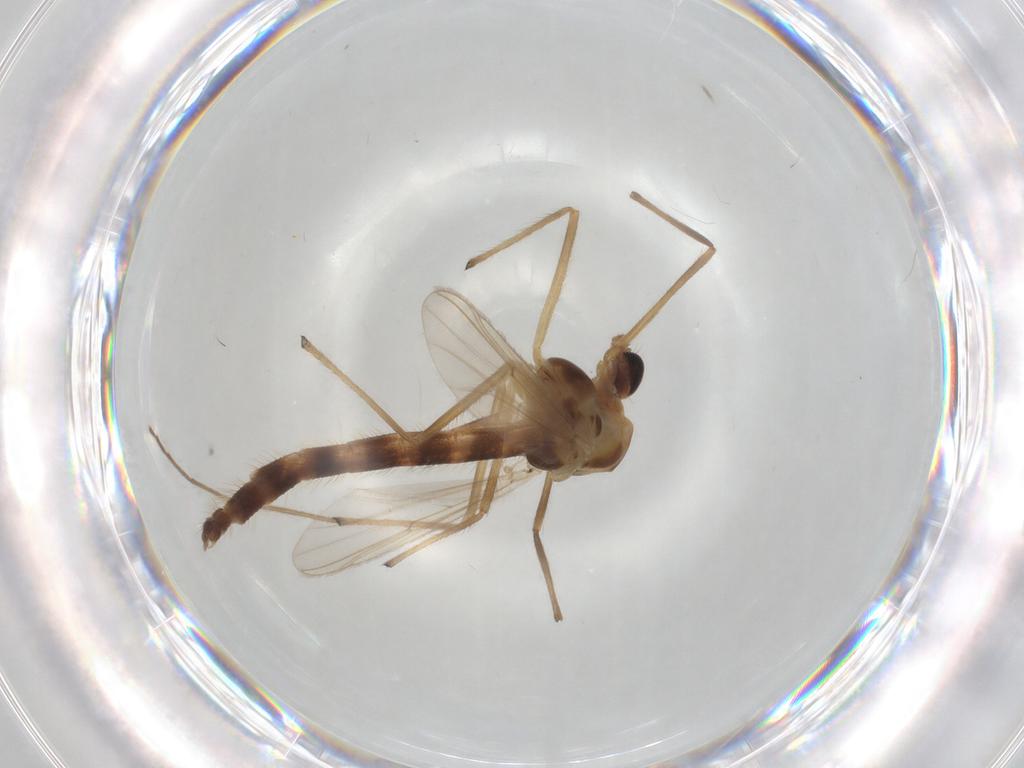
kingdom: Animalia
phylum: Arthropoda
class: Insecta
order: Diptera
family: Chironomidae
